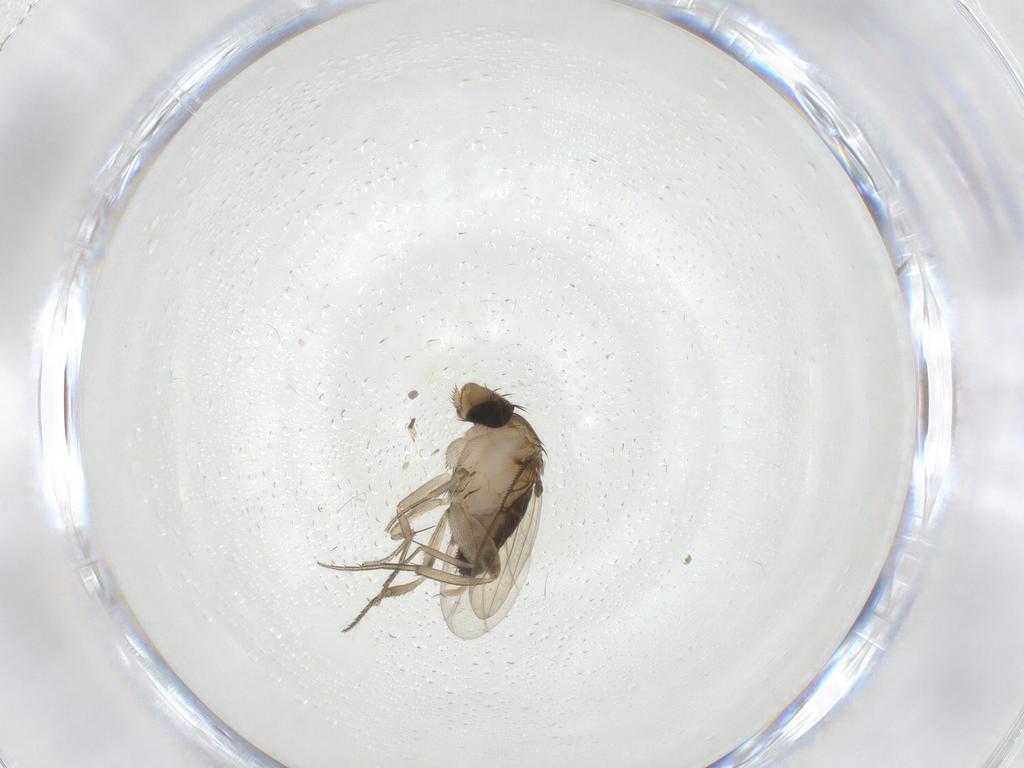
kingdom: Animalia
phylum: Arthropoda
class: Insecta
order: Diptera
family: Phoridae
